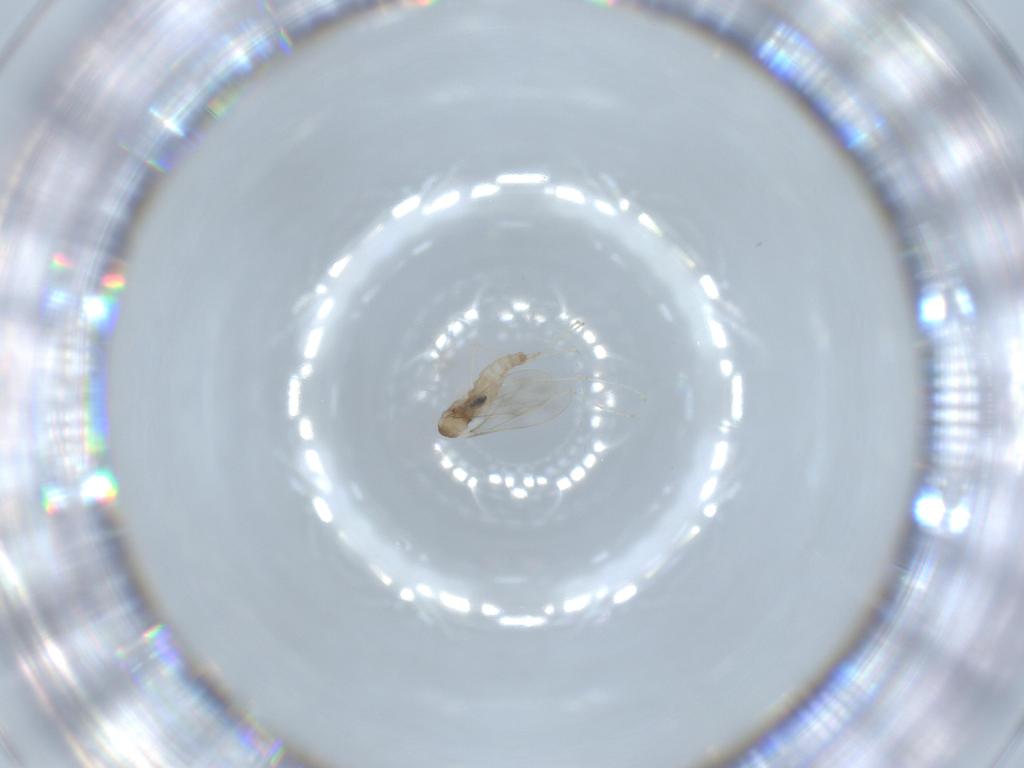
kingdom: Animalia
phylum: Arthropoda
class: Insecta
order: Diptera
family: Cecidomyiidae
